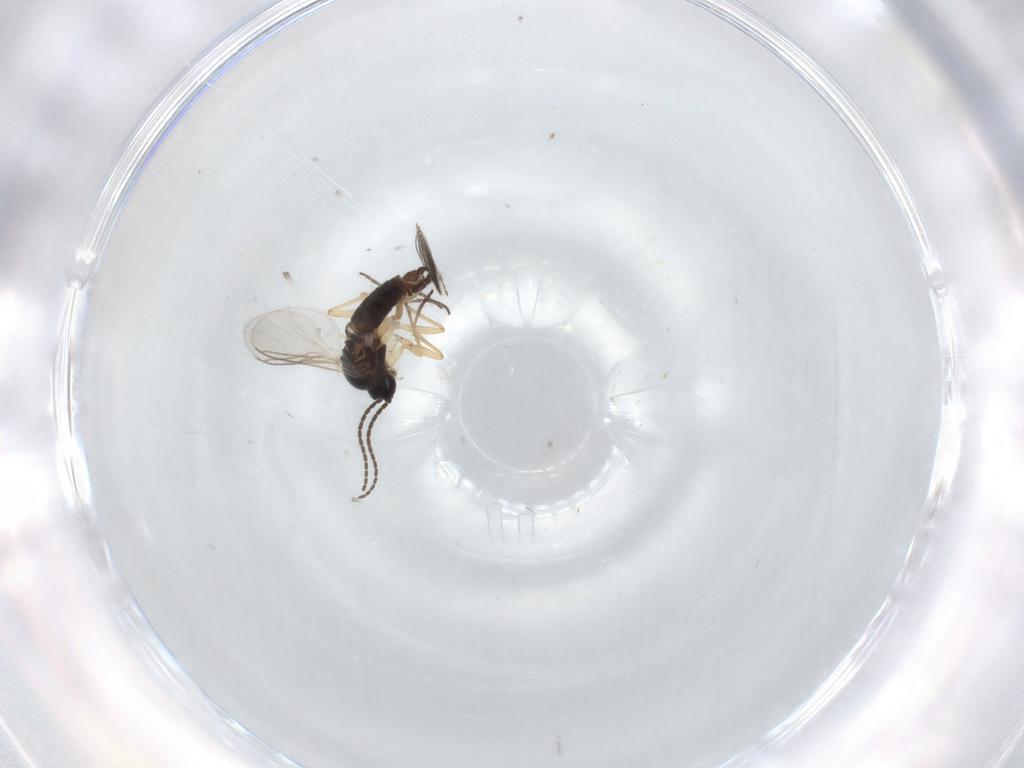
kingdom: Animalia
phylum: Arthropoda
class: Insecta
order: Diptera
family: Sciaridae
